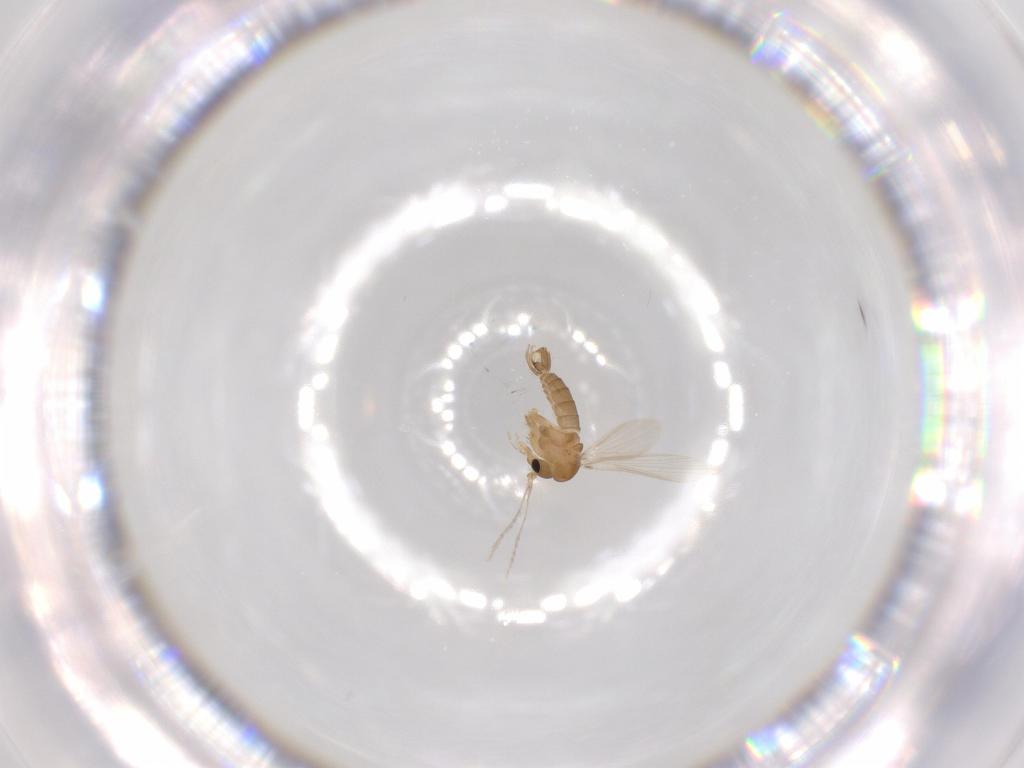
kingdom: Animalia
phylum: Arthropoda
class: Insecta
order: Diptera
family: Psychodidae
